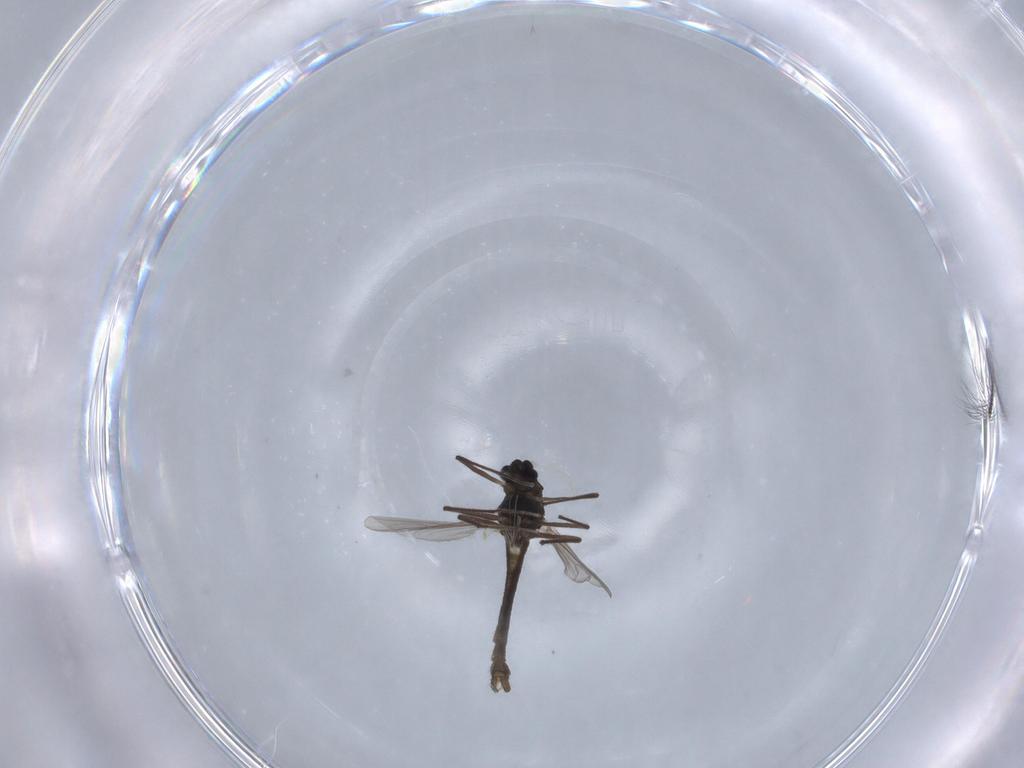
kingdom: Animalia
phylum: Arthropoda
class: Insecta
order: Diptera
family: Chironomidae
